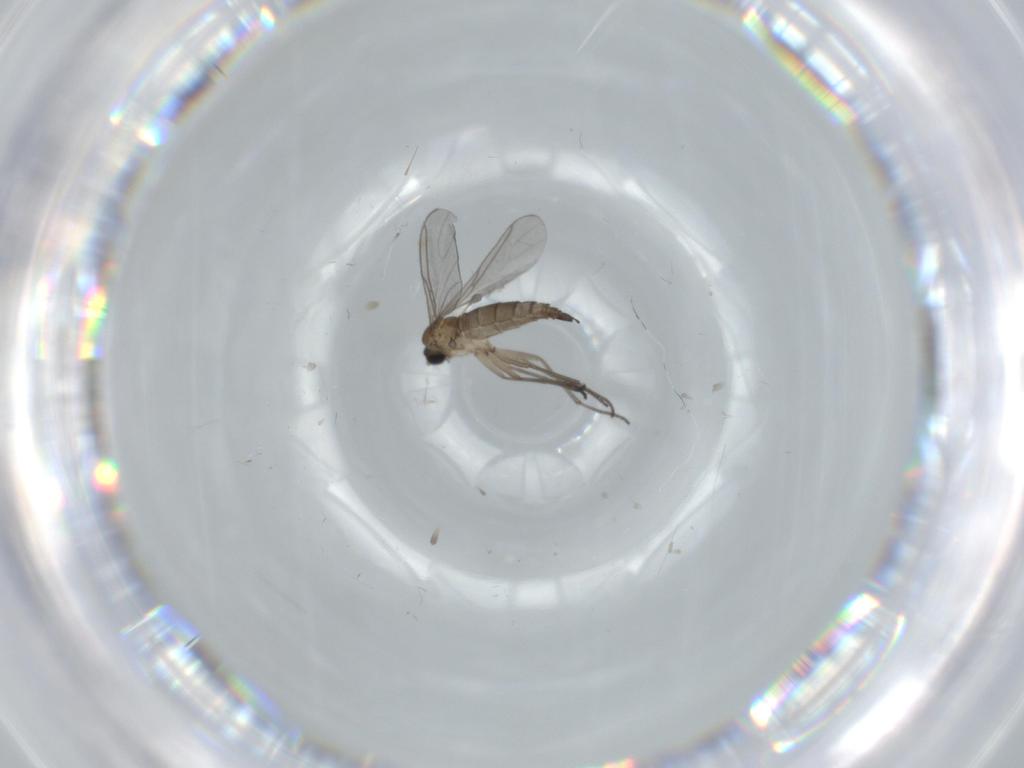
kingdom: Animalia
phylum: Arthropoda
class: Insecta
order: Diptera
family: Sciaridae
